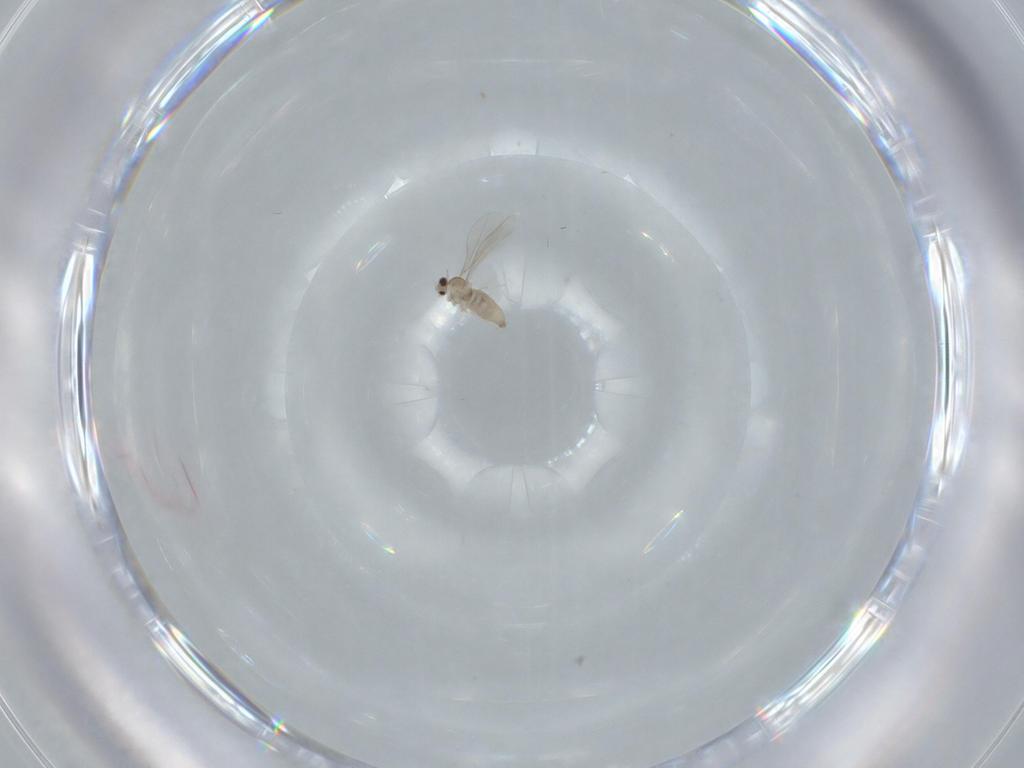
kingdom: Animalia
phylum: Arthropoda
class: Insecta
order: Diptera
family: Cecidomyiidae
